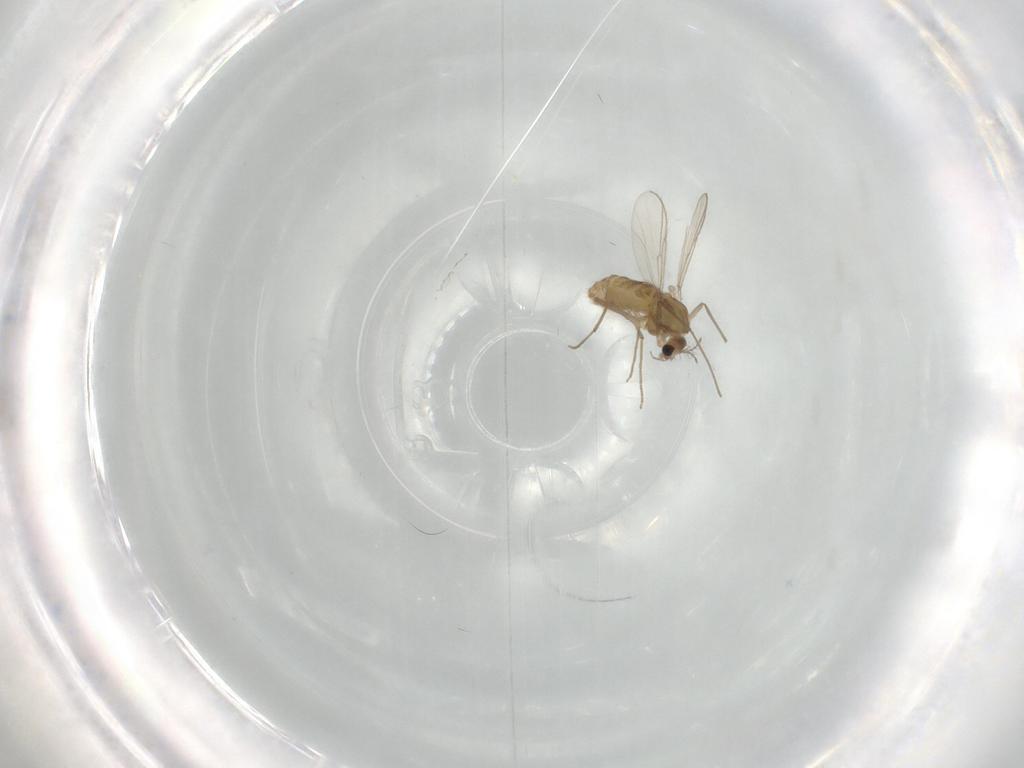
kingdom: Animalia
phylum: Arthropoda
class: Insecta
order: Diptera
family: Chironomidae
